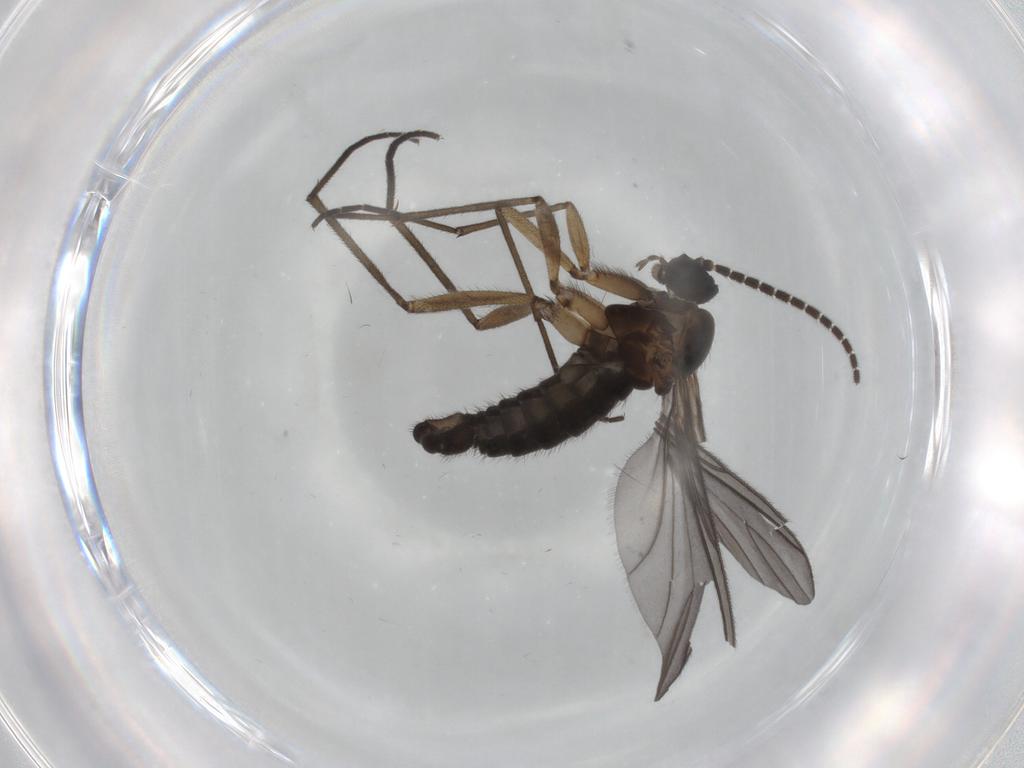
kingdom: Animalia
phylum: Arthropoda
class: Insecta
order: Diptera
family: Sciaridae
